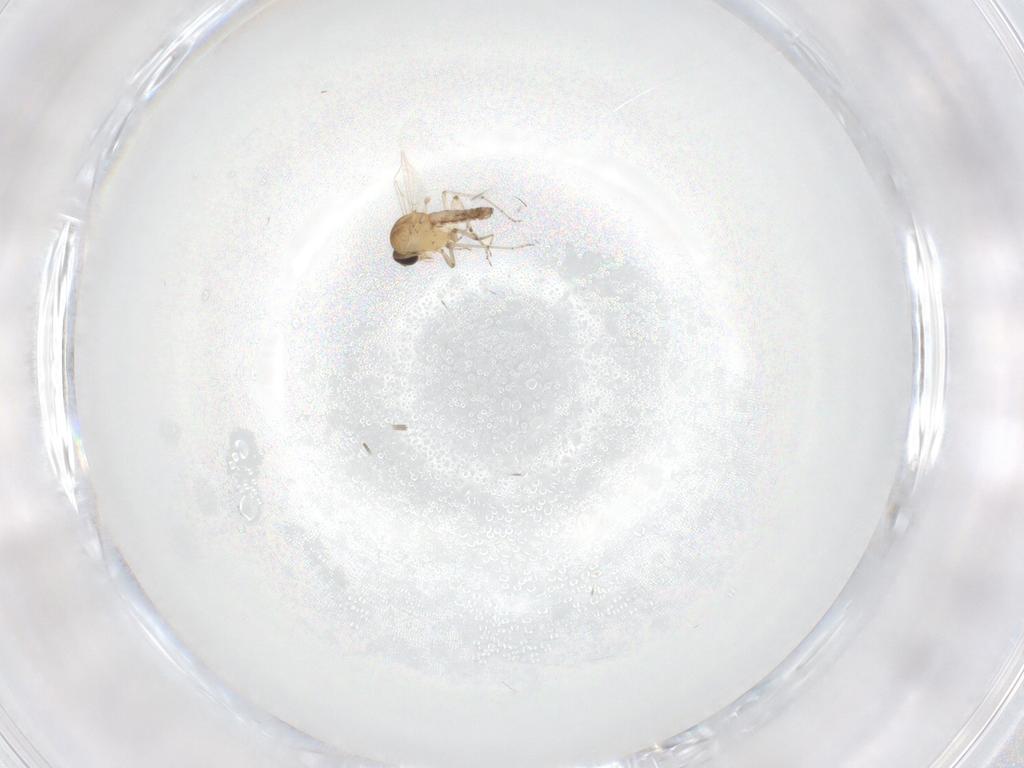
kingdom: Animalia
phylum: Arthropoda
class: Insecta
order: Diptera
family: Ceratopogonidae
